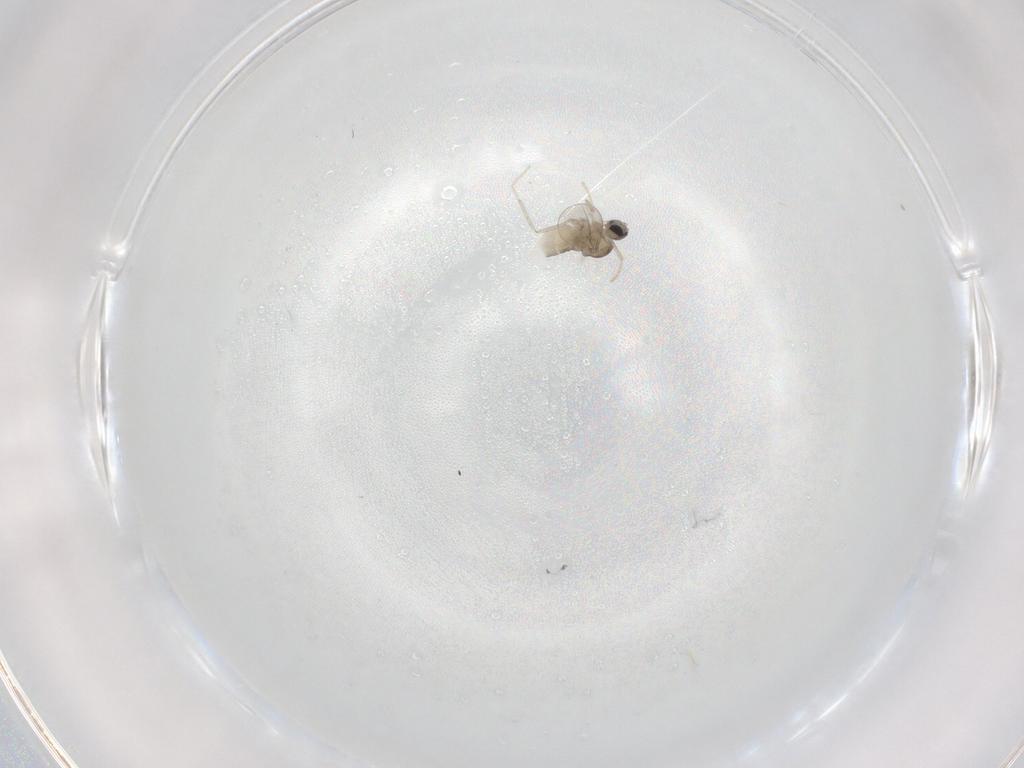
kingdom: Animalia
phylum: Arthropoda
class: Insecta
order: Diptera
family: Cecidomyiidae
